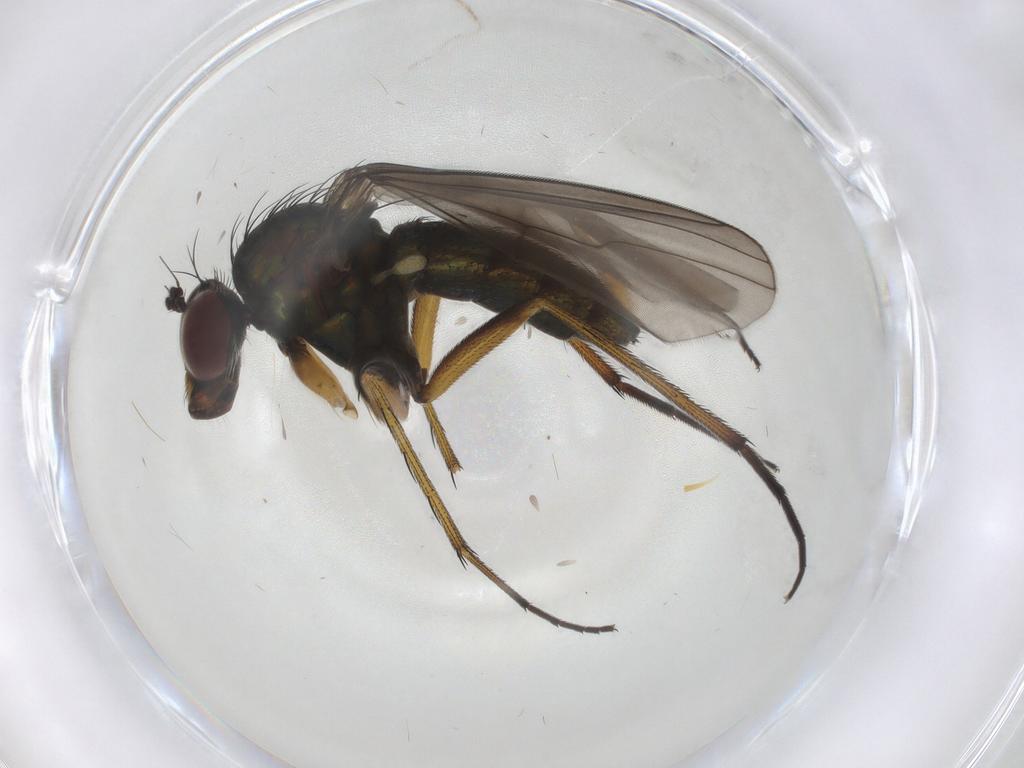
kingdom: Animalia
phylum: Arthropoda
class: Insecta
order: Diptera
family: Dolichopodidae
